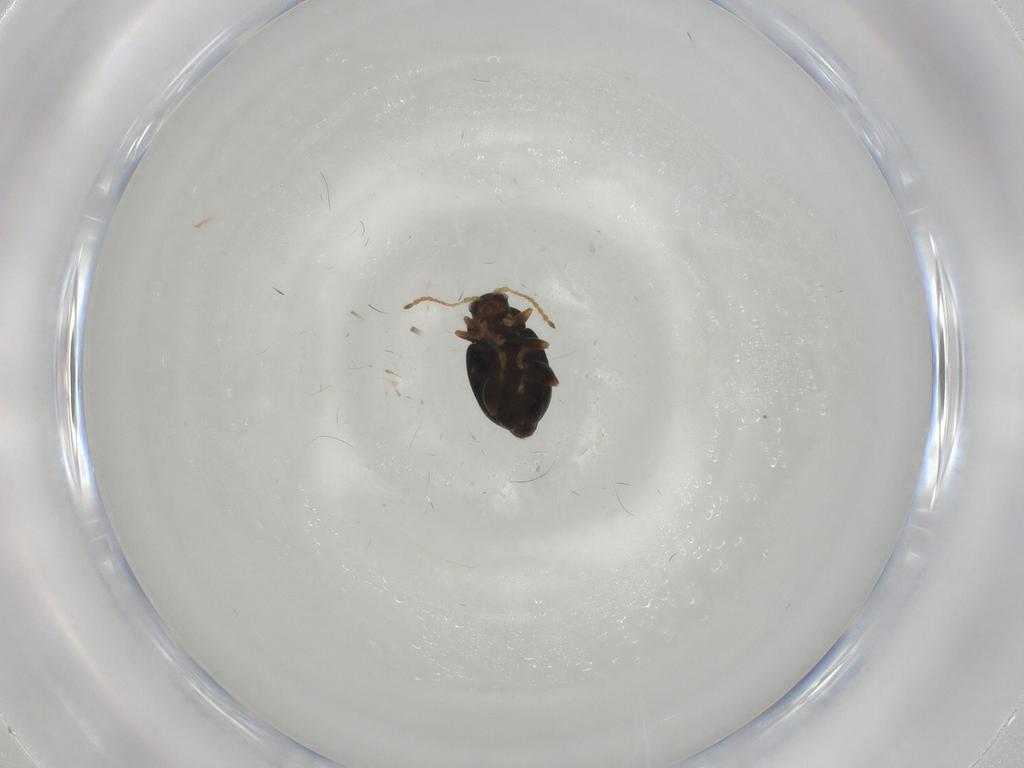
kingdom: Animalia
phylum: Arthropoda
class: Insecta
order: Coleoptera
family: Chrysomelidae
